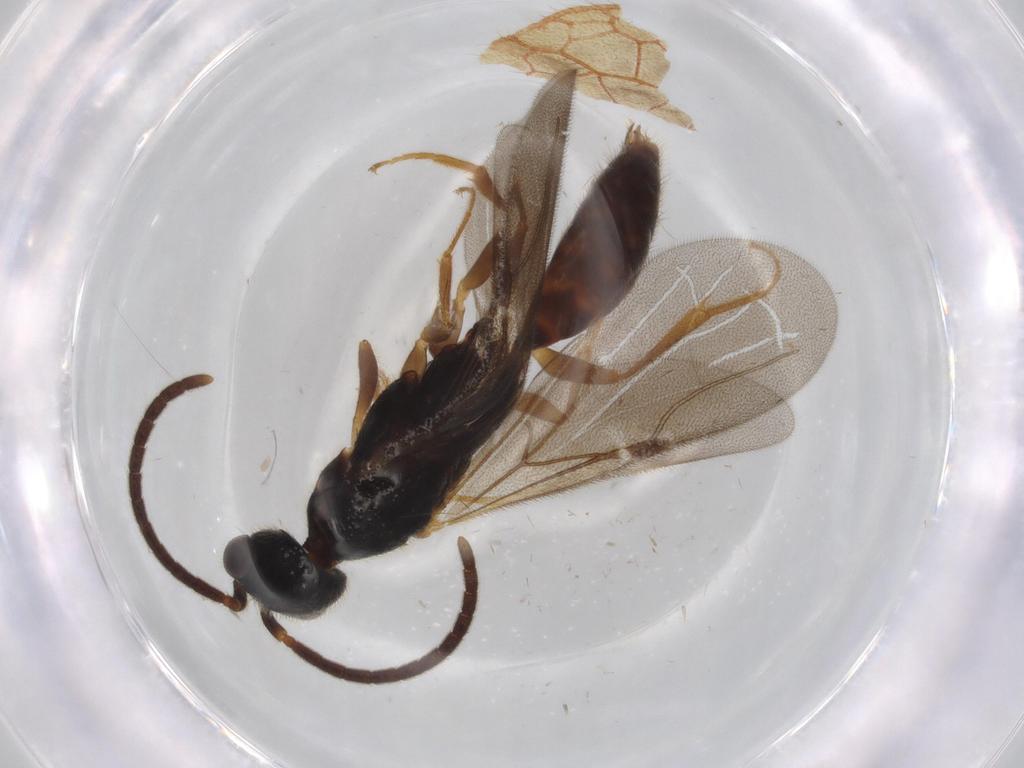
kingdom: Animalia
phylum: Arthropoda
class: Insecta
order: Hymenoptera
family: Bethylidae
